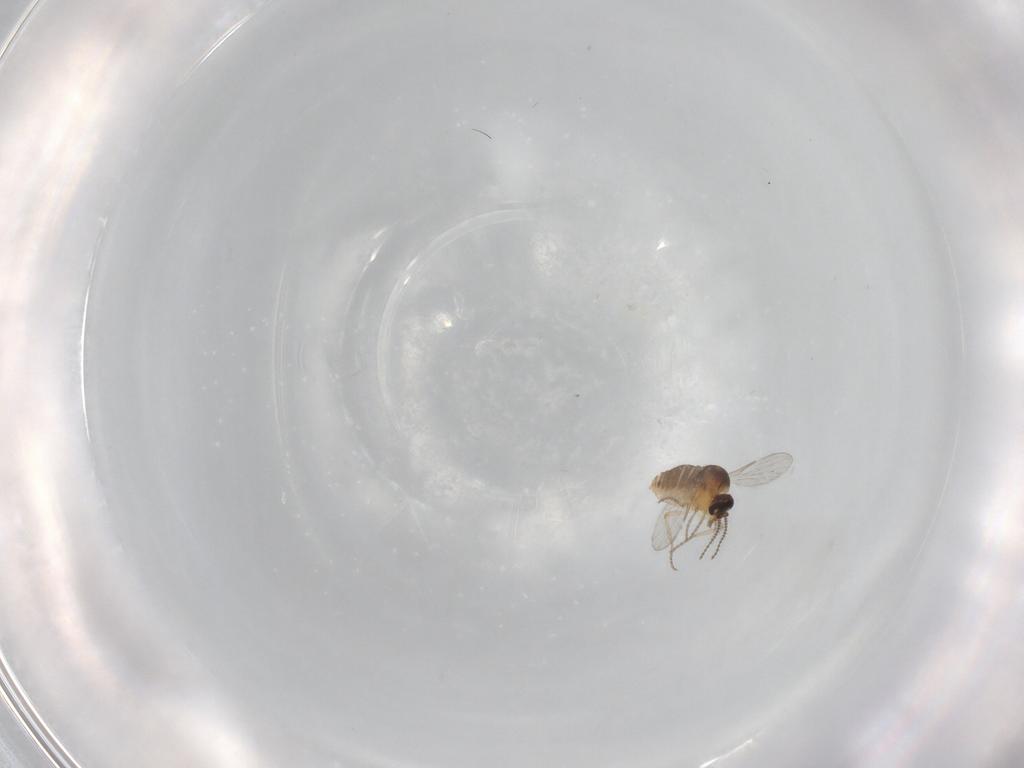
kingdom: Animalia
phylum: Arthropoda
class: Insecta
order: Diptera
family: Ceratopogonidae
